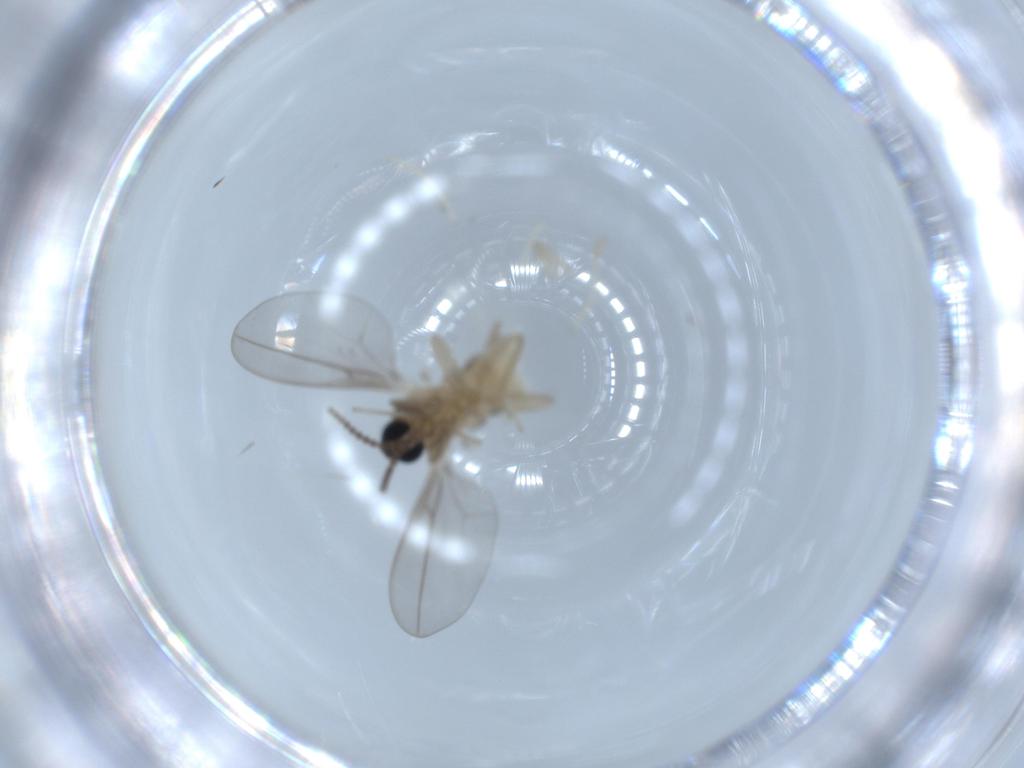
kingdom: Animalia
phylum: Arthropoda
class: Insecta
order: Diptera
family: Cecidomyiidae
